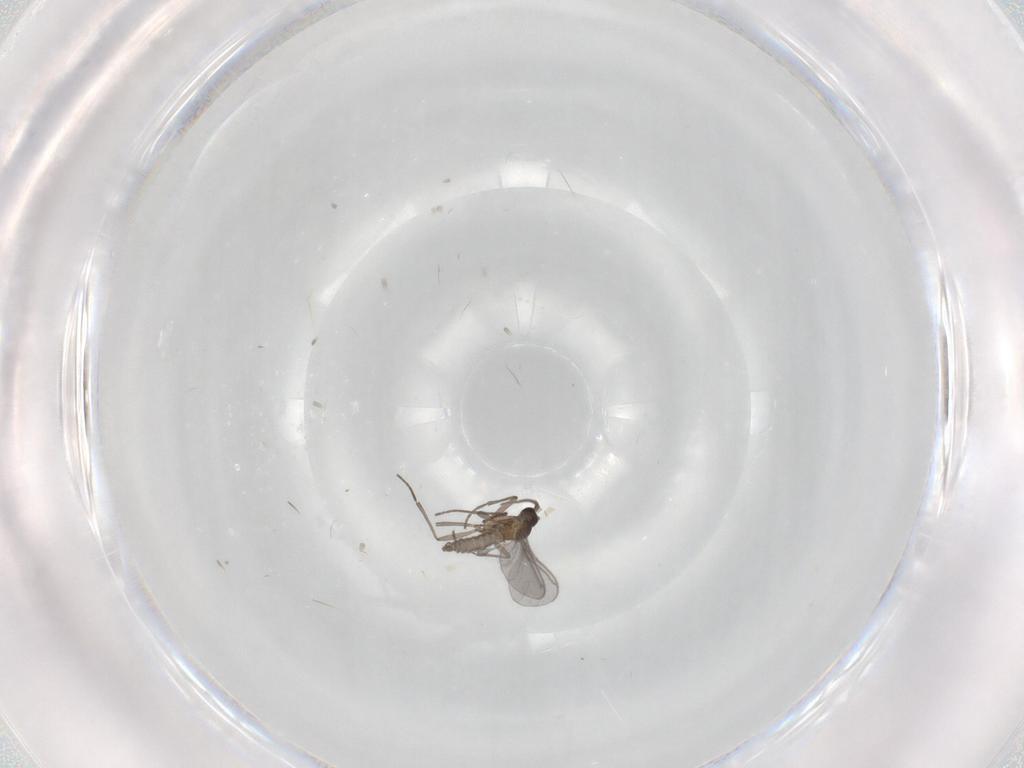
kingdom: Animalia
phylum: Arthropoda
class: Insecta
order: Diptera
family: Sciaridae
